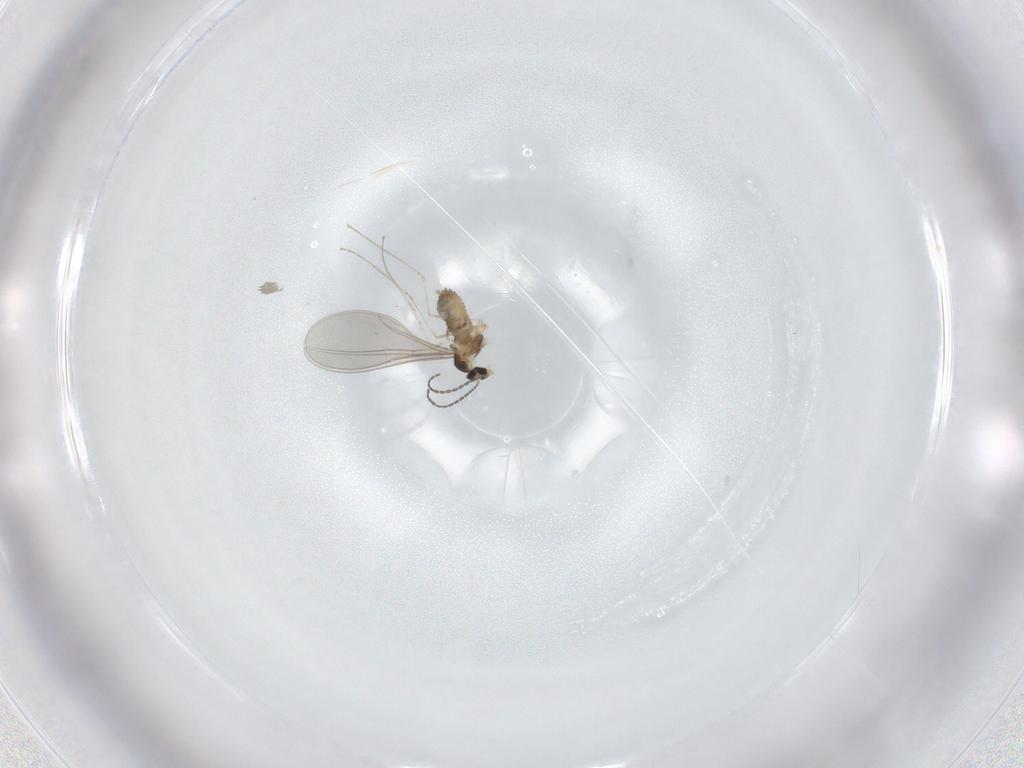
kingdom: Animalia
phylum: Arthropoda
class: Insecta
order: Diptera
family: Cecidomyiidae
